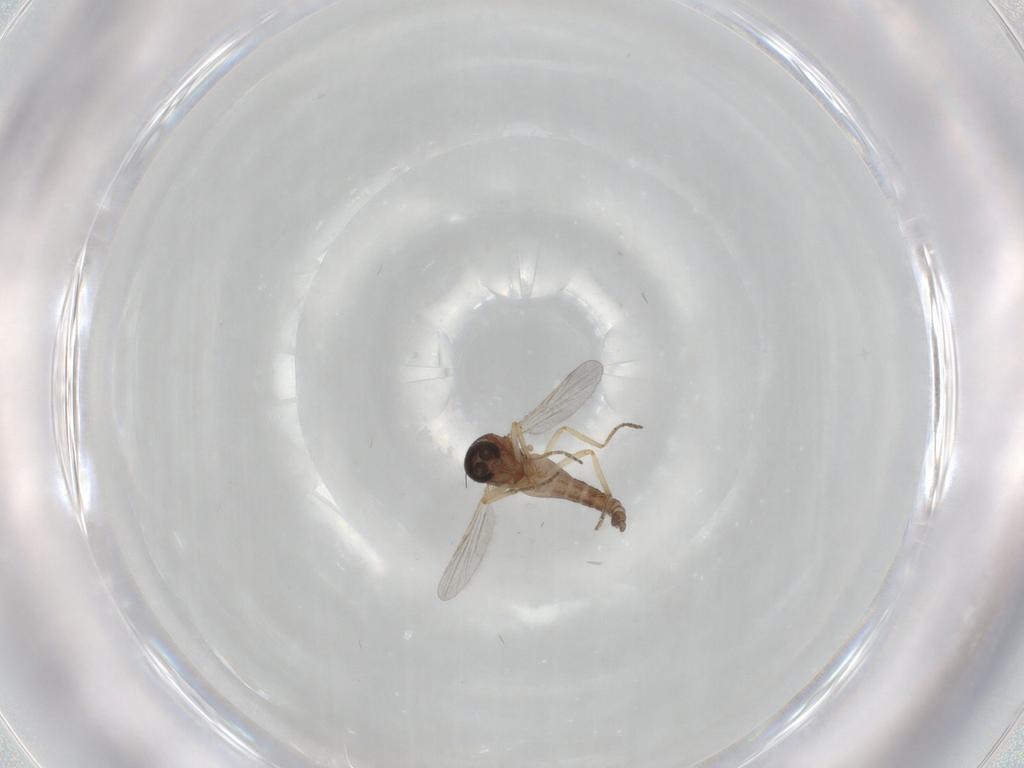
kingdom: Animalia
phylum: Arthropoda
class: Insecta
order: Diptera
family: Ceratopogonidae
